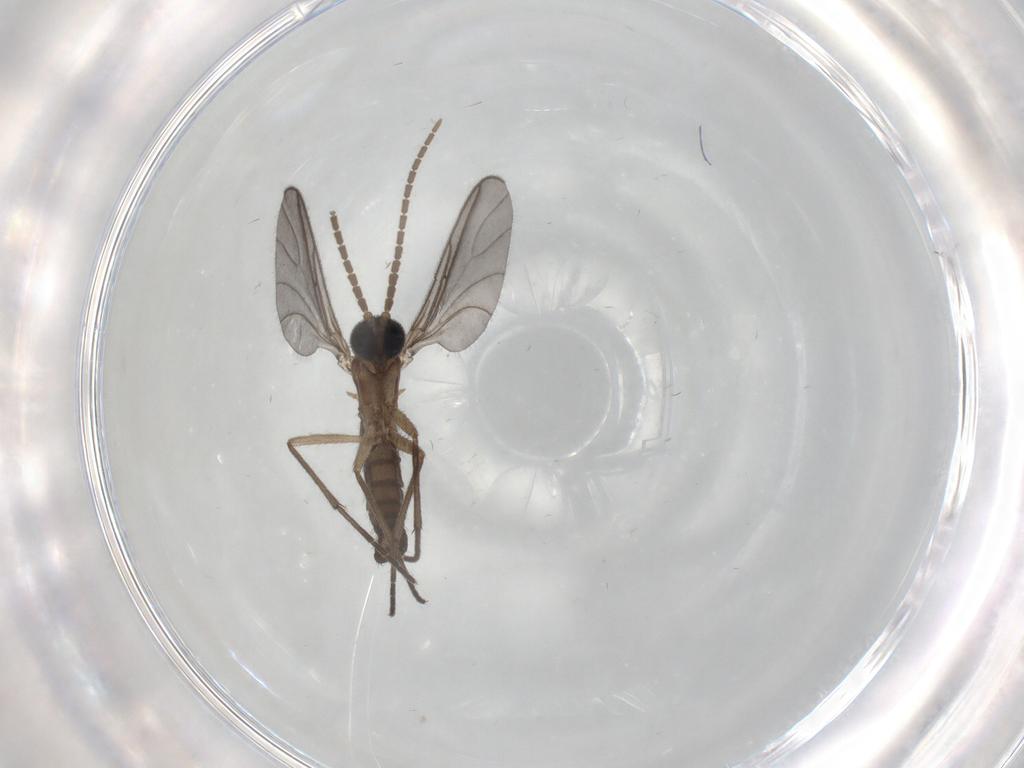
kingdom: Animalia
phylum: Arthropoda
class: Insecta
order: Diptera
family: Sciaridae
